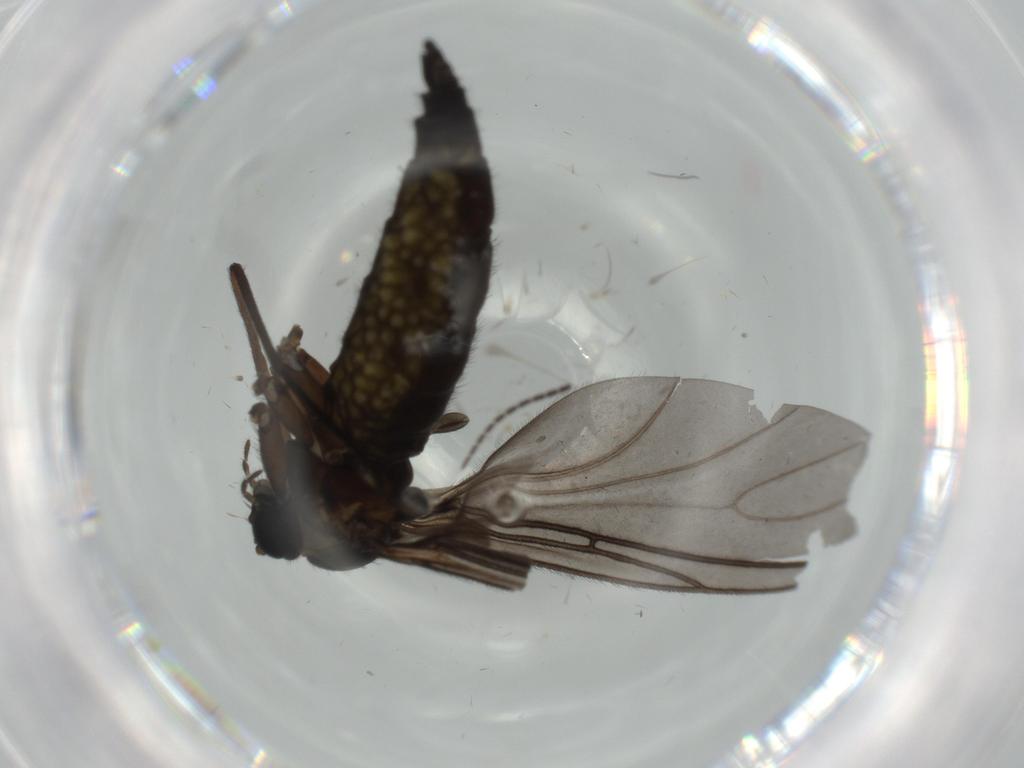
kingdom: Animalia
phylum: Arthropoda
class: Insecta
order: Diptera
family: Sciaridae
